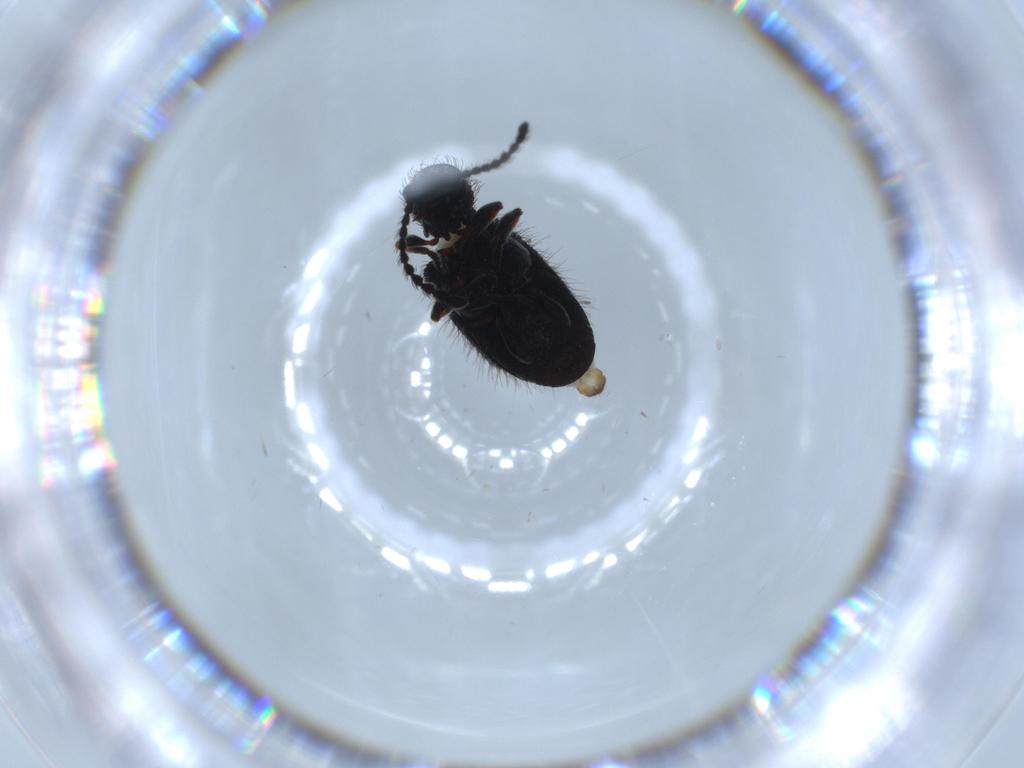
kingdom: Animalia
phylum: Arthropoda
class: Insecta
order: Coleoptera
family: Ptinidae
